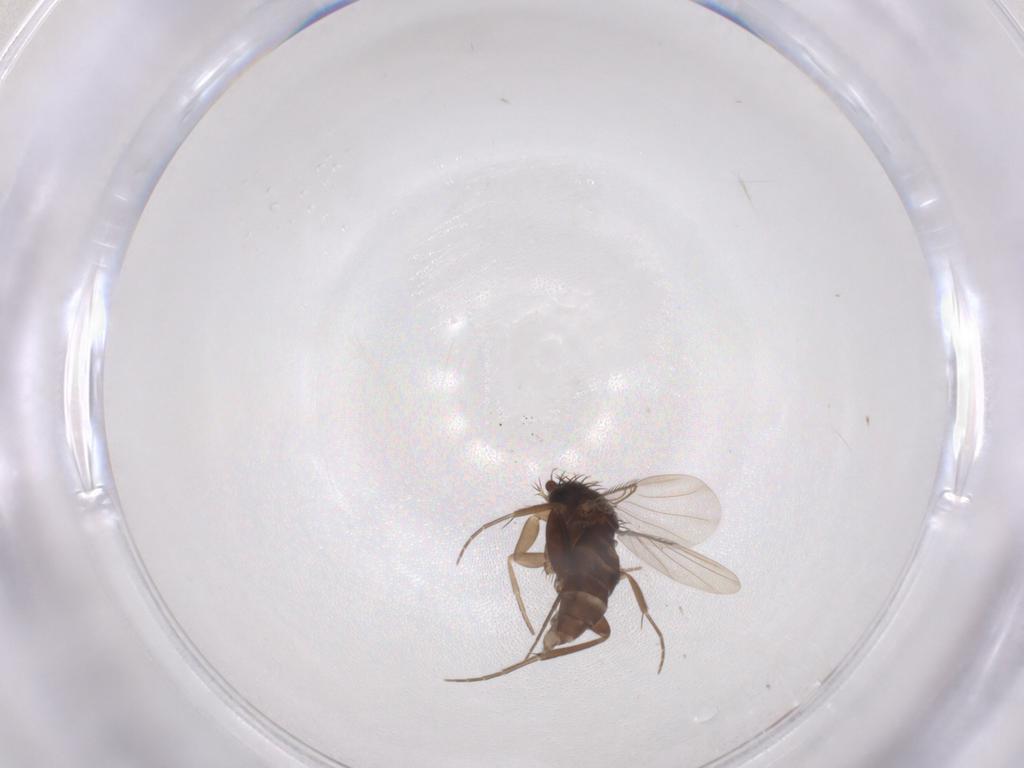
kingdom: Animalia
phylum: Arthropoda
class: Insecta
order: Diptera
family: Phoridae
